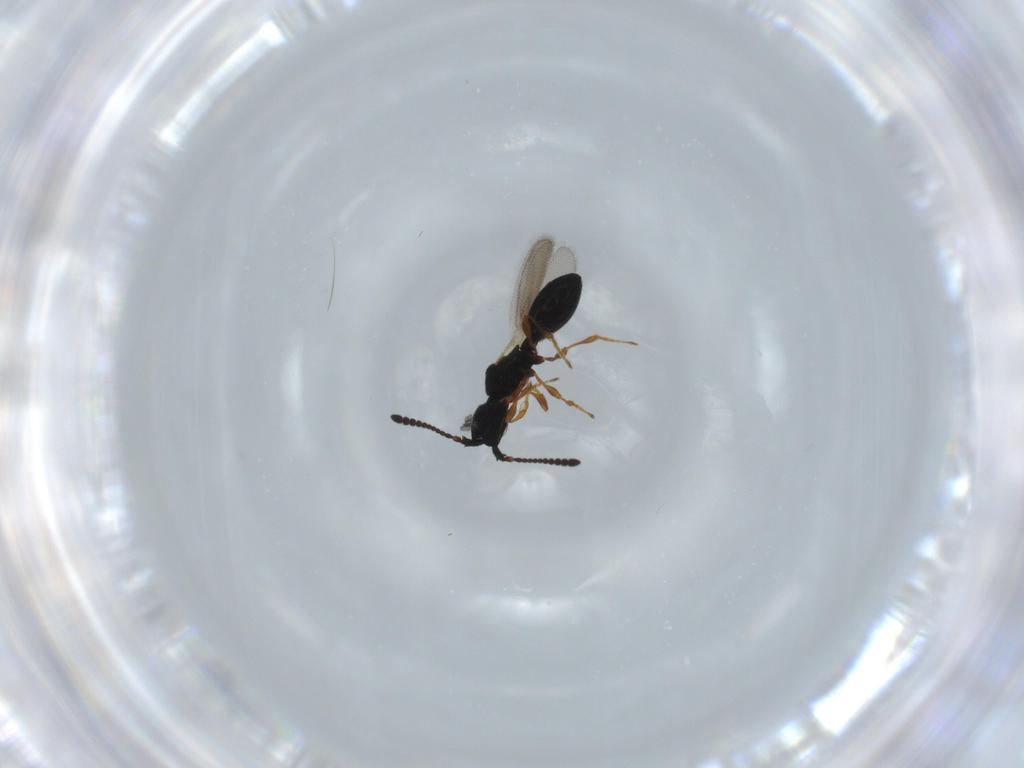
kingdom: Animalia
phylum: Arthropoda
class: Insecta
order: Hymenoptera
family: Diapriidae
